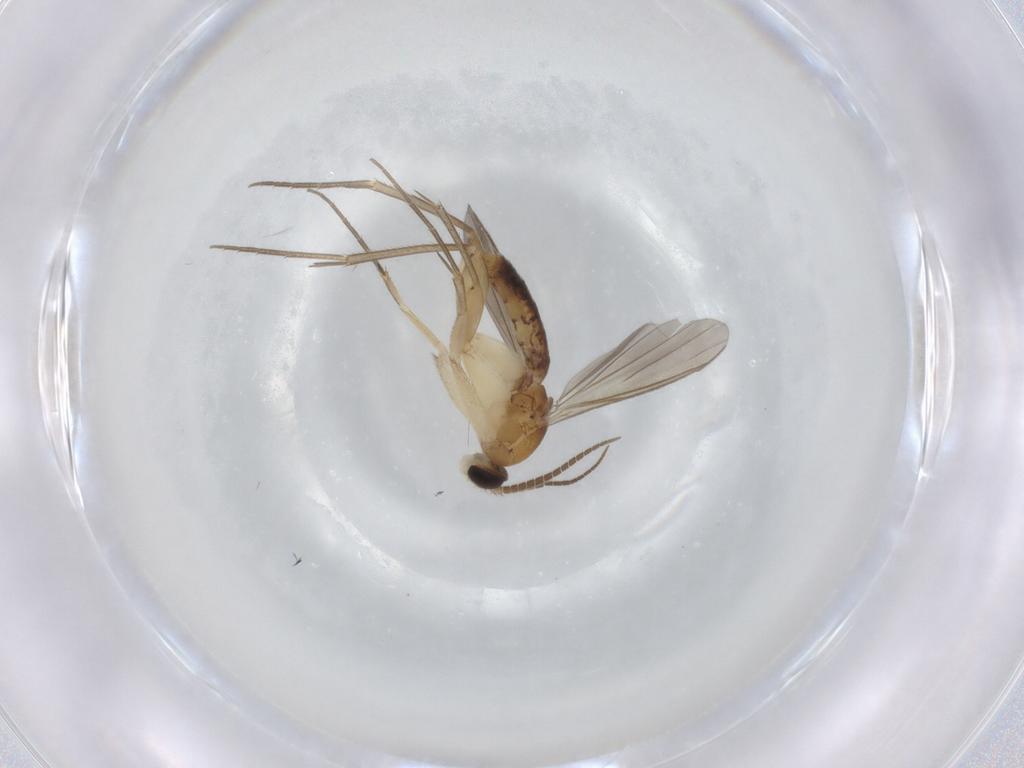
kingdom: Animalia
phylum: Arthropoda
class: Insecta
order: Diptera
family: Mycetophilidae
